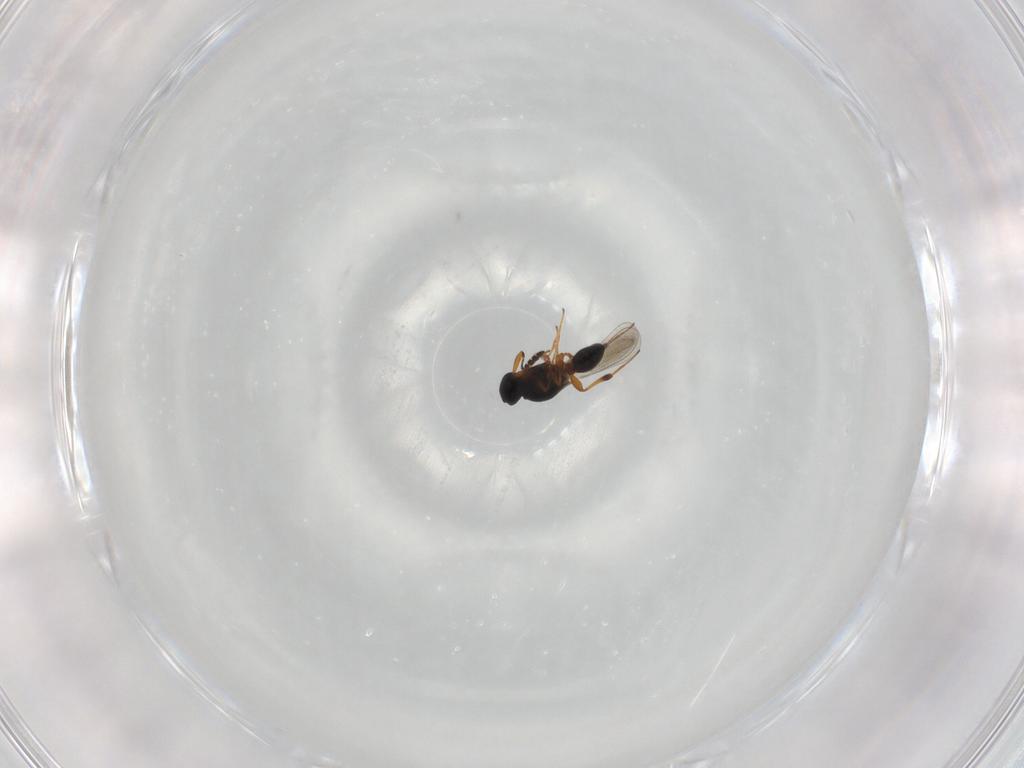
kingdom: Animalia
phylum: Arthropoda
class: Insecta
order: Hymenoptera
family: Azotidae
